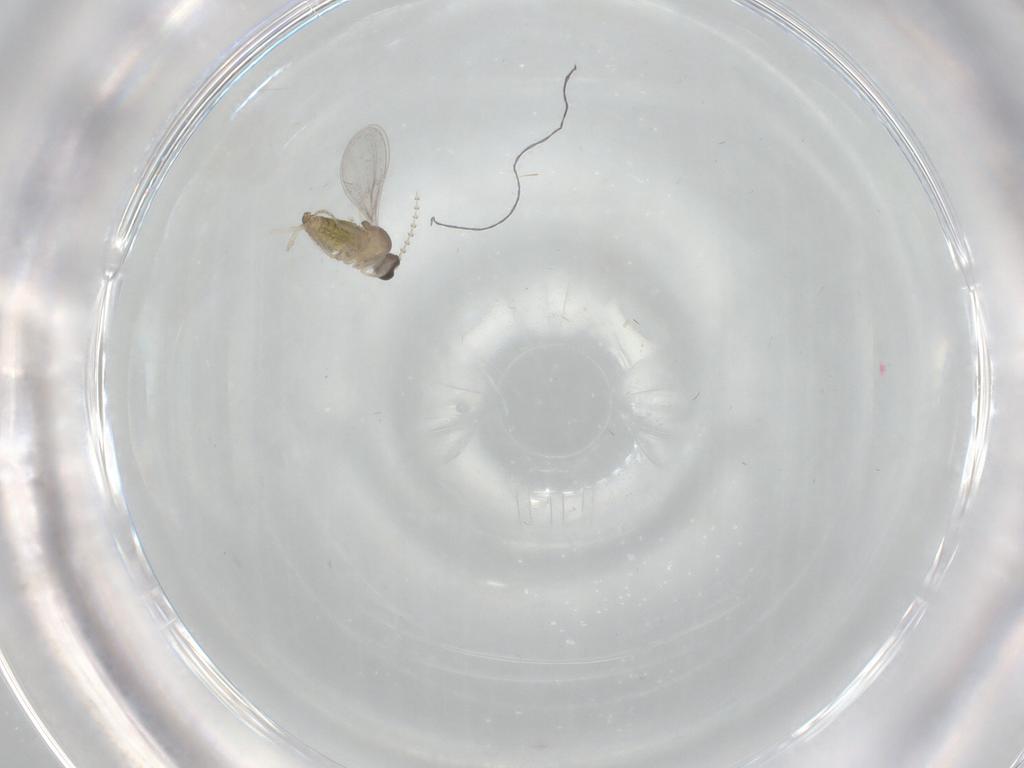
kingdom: Animalia
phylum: Arthropoda
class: Insecta
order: Diptera
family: Cecidomyiidae
